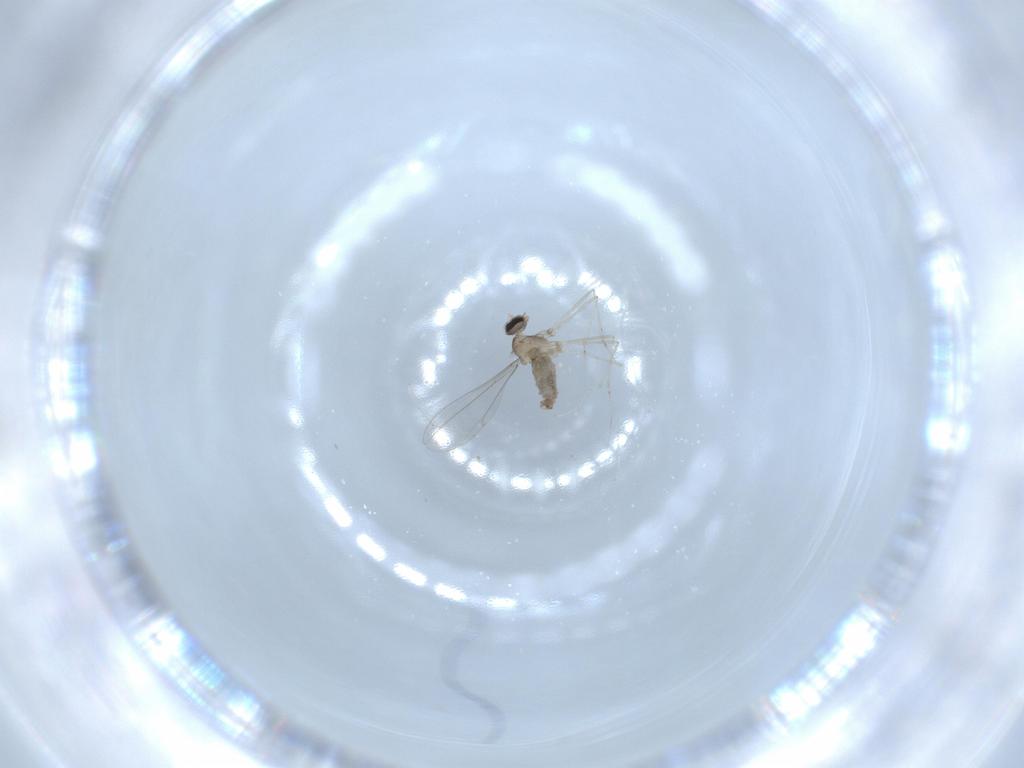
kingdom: Animalia
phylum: Arthropoda
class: Insecta
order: Diptera
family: Cecidomyiidae
